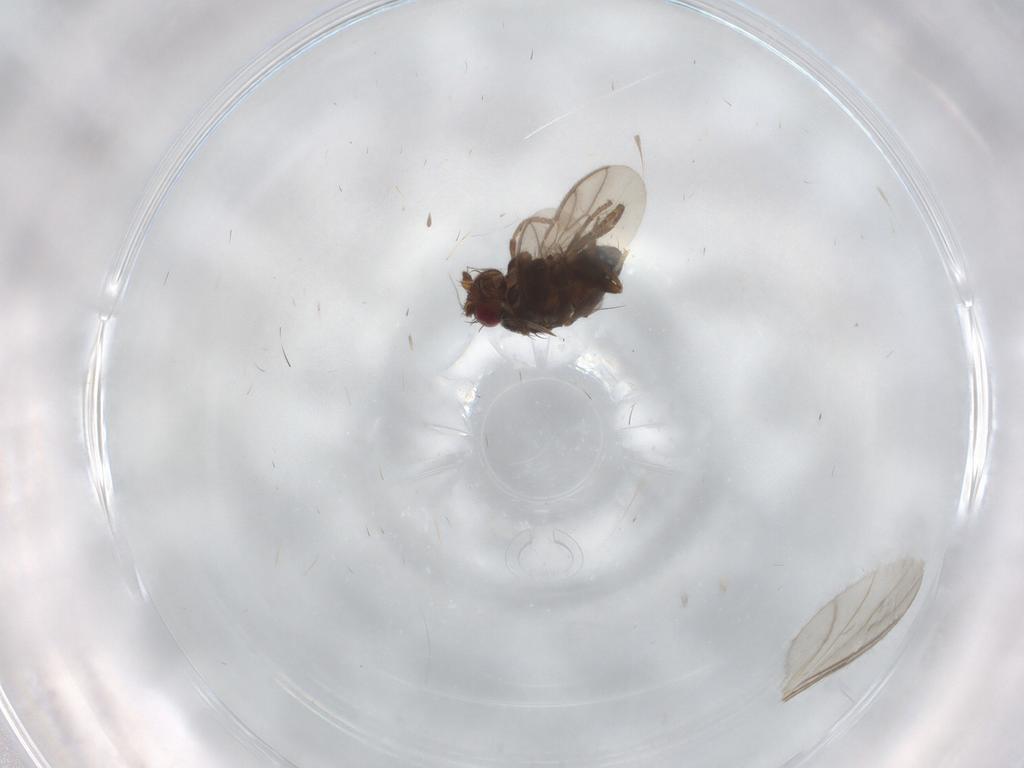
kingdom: Animalia
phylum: Arthropoda
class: Insecta
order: Diptera
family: Sphaeroceridae
